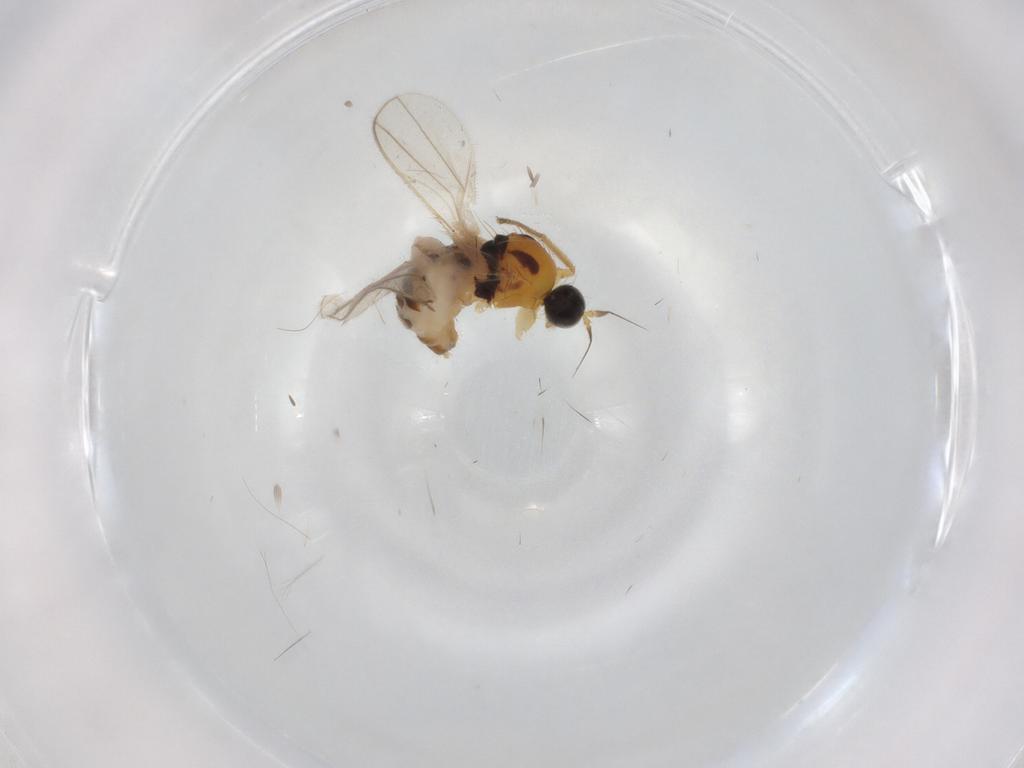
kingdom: Animalia
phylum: Arthropoda
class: Insecta
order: Diptera
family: Hybotidae
